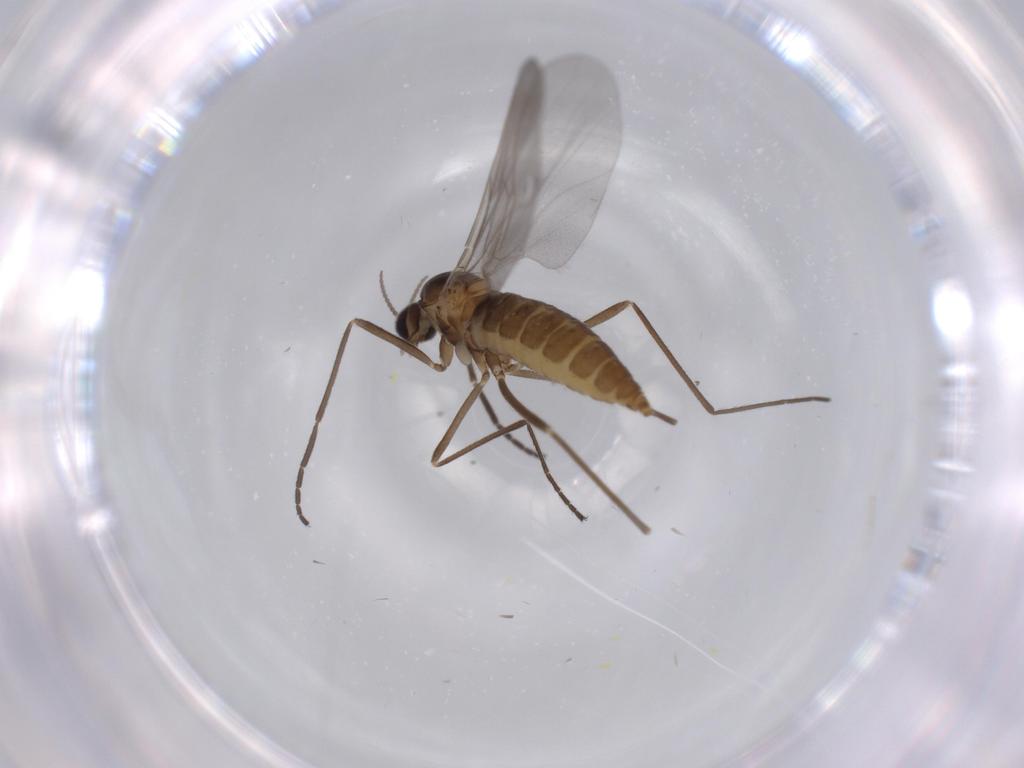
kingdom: Animalia
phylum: Arthropoda
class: Insecta
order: Diptera
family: Cecidomyiidae
